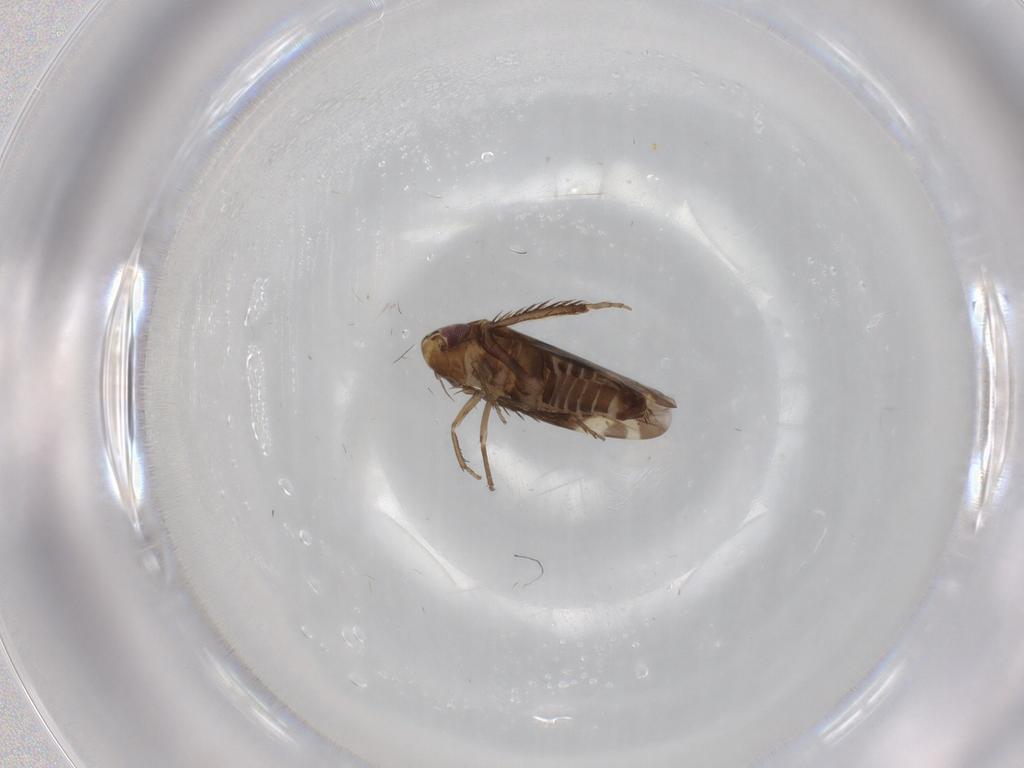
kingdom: Animalia
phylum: Arthropoda
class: Insecta
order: Hemiptera
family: Cicadellidae
